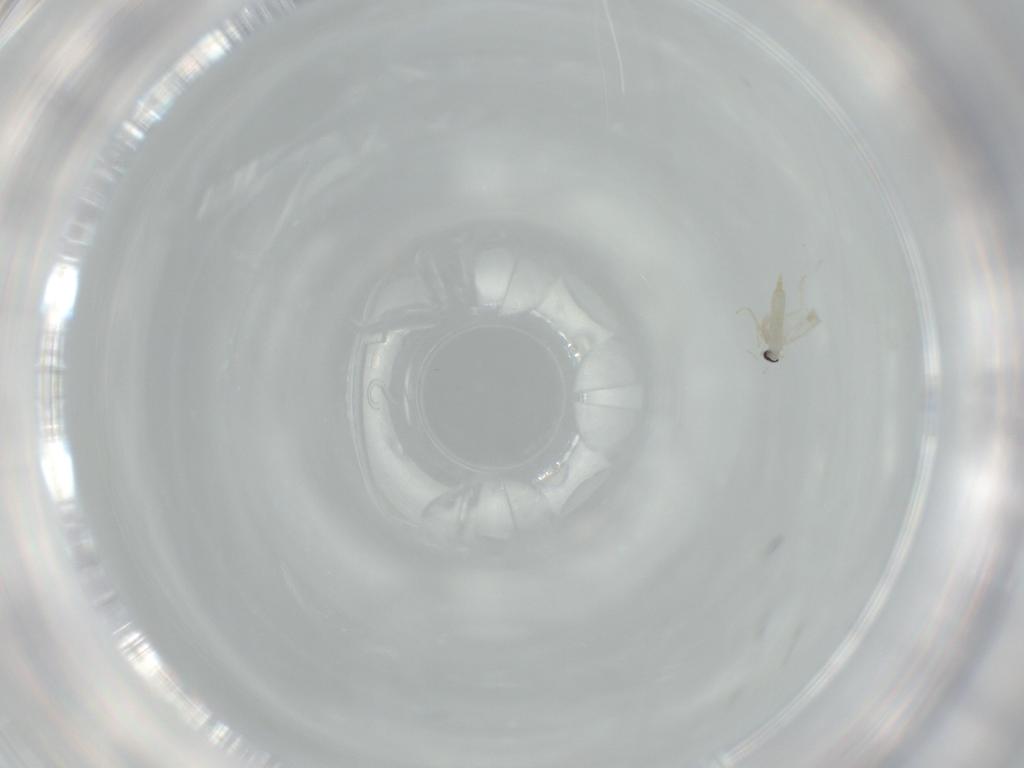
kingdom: Animalia
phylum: Arthropoda
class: Insecta
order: Diptera
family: Cecidomyiidae
